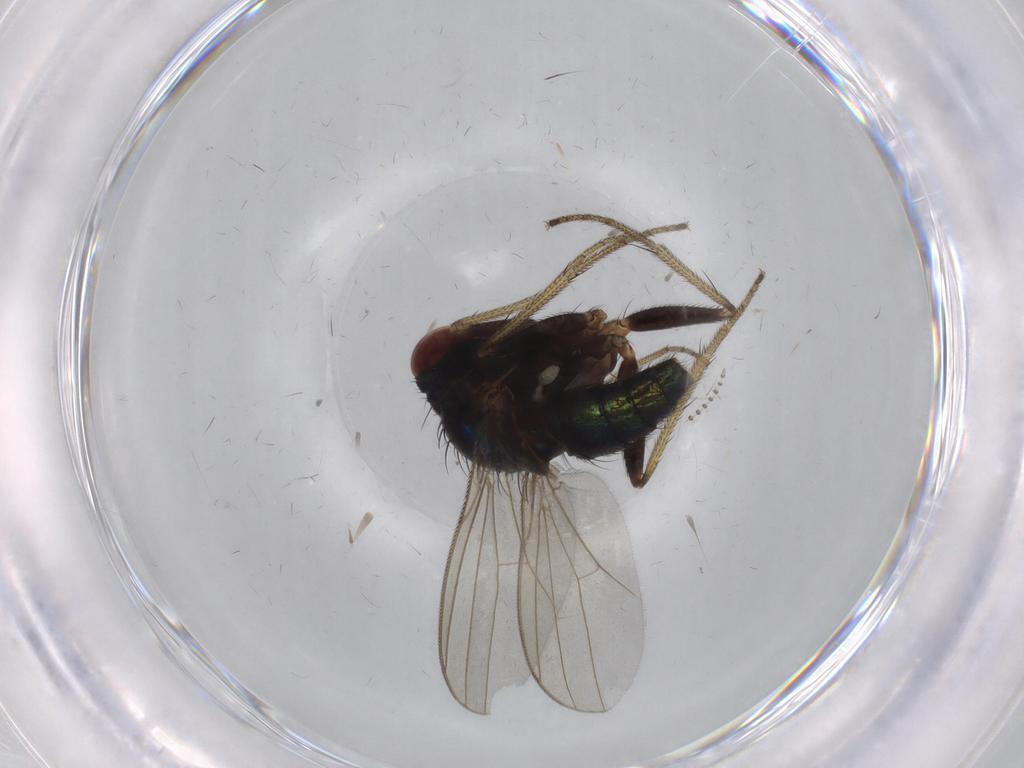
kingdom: Animalia
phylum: Arthropoda
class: Insecta
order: Diptera
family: Dolichopodidae
